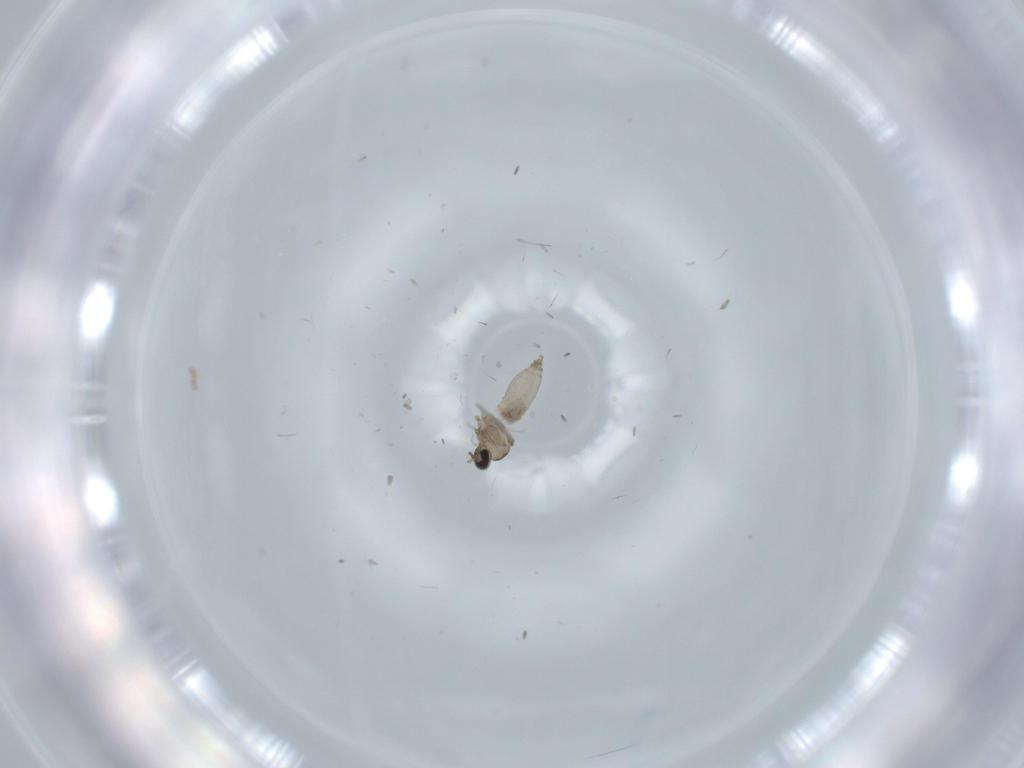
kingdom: Animalia
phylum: Arthropoda
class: Insecta
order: Diptera
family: Cecidomyiidae
